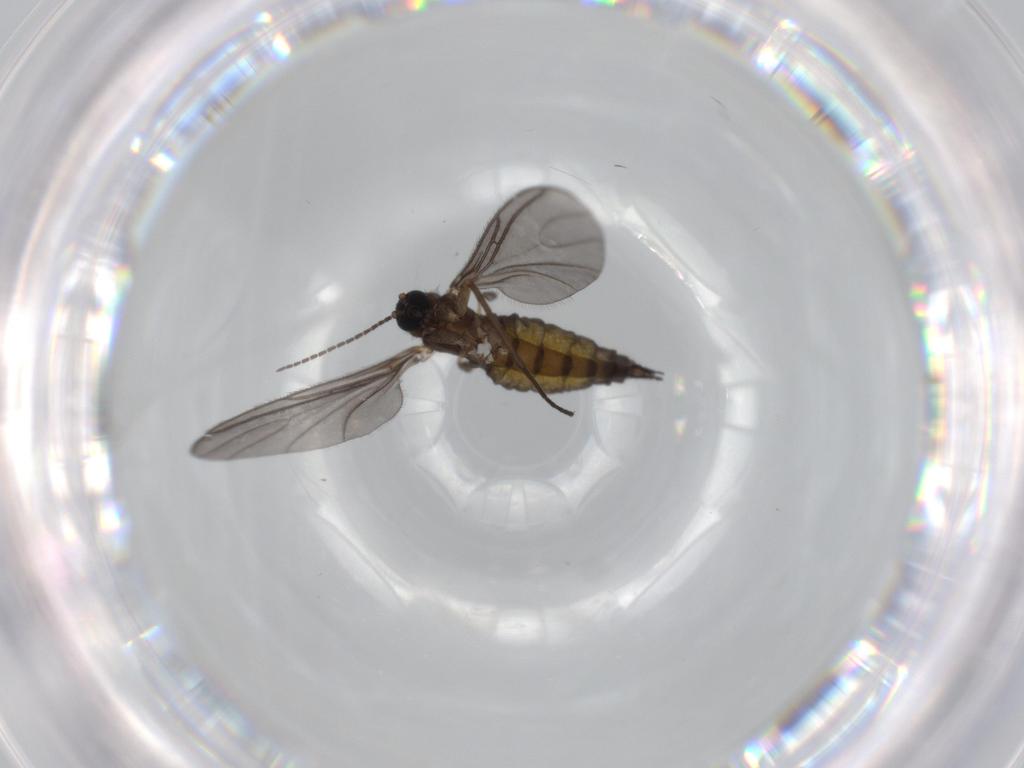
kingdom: Animalia
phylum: Arthropoda
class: Insecta
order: Diptera
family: Sciaridae
